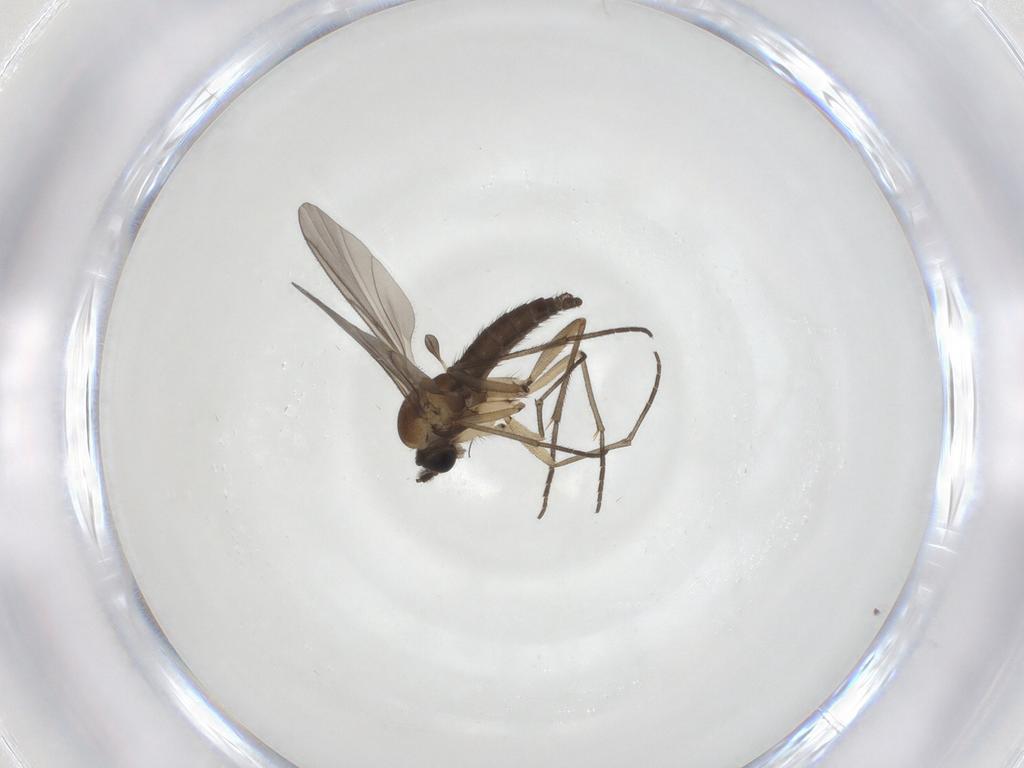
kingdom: Animalia
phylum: Arthropoda
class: Insecta
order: Diptera
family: Sciaridae
